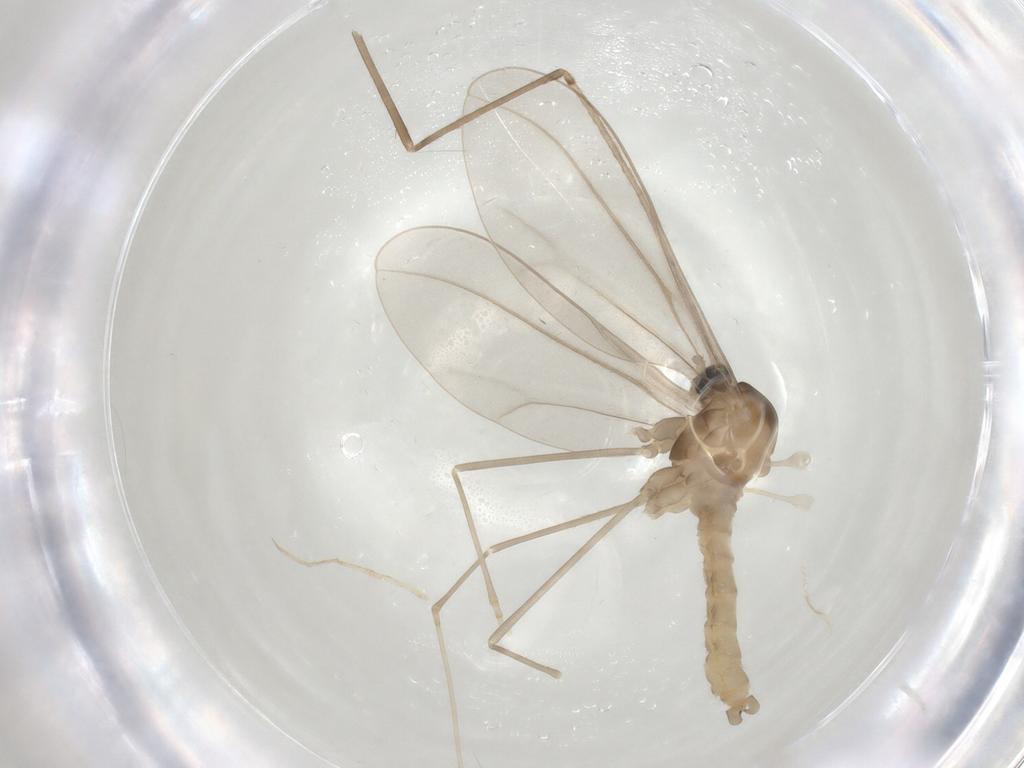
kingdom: Animalia
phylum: Arthropoda
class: Insecta
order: Diptera
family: Cecidomyiidae
